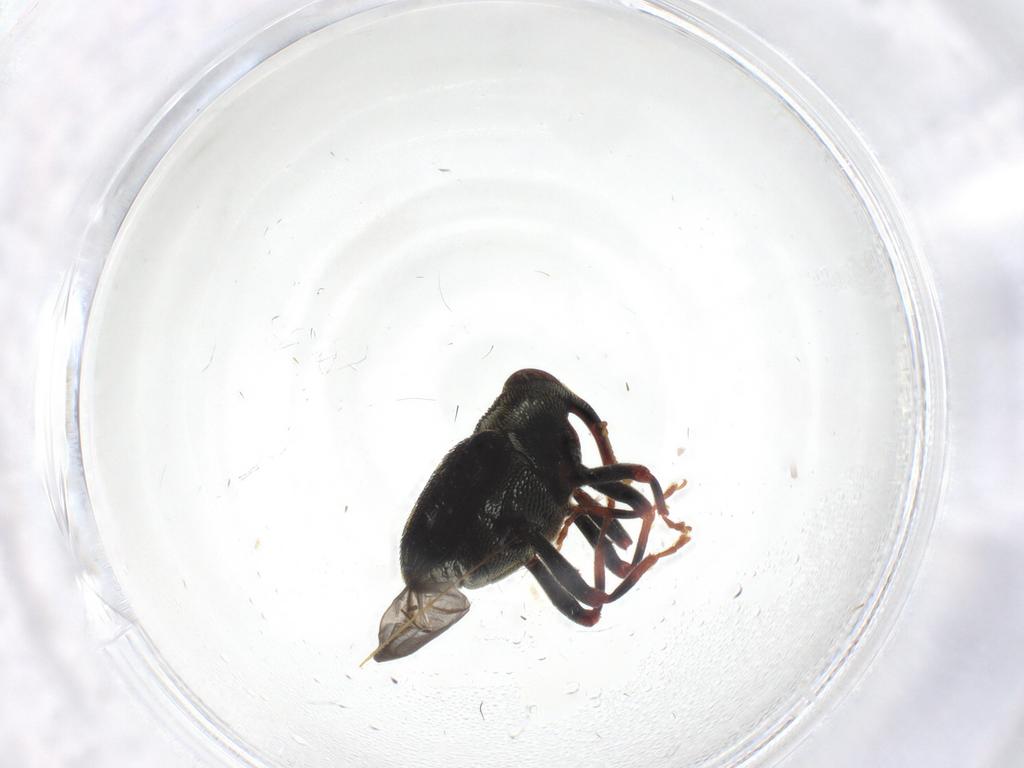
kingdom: Animalia
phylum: Arthropoda
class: Insecta
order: Coleoptera
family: Curculionidae
